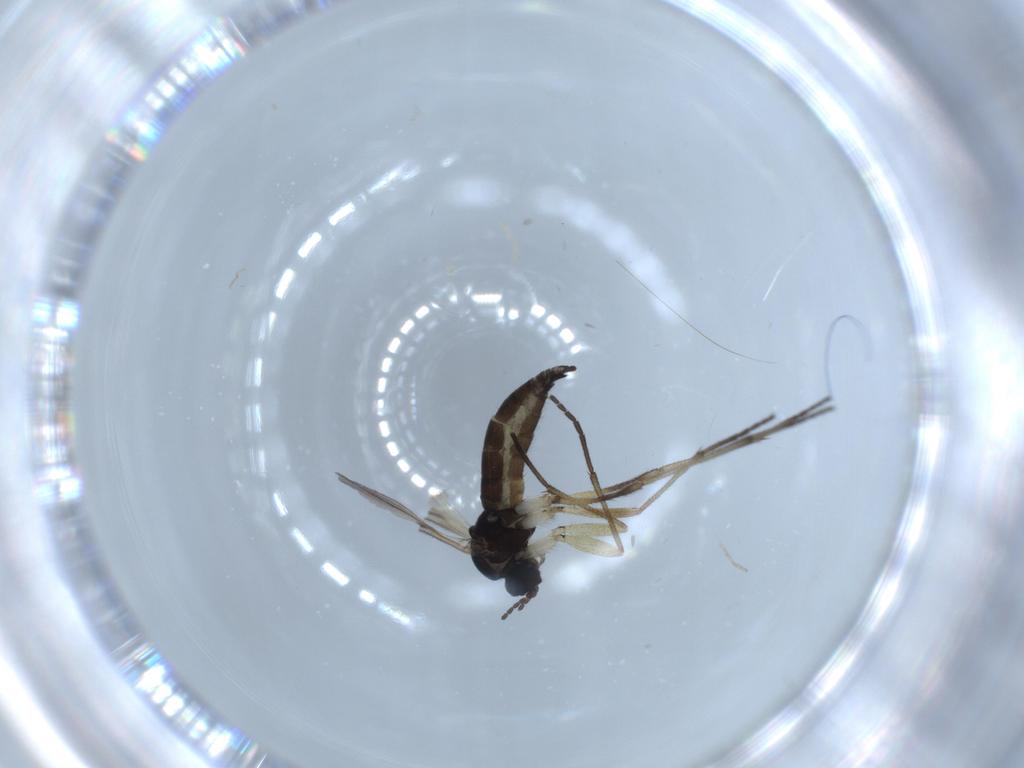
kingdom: Animalia
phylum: Arthropoda
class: Insecta
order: Diptera
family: Sciaridae
